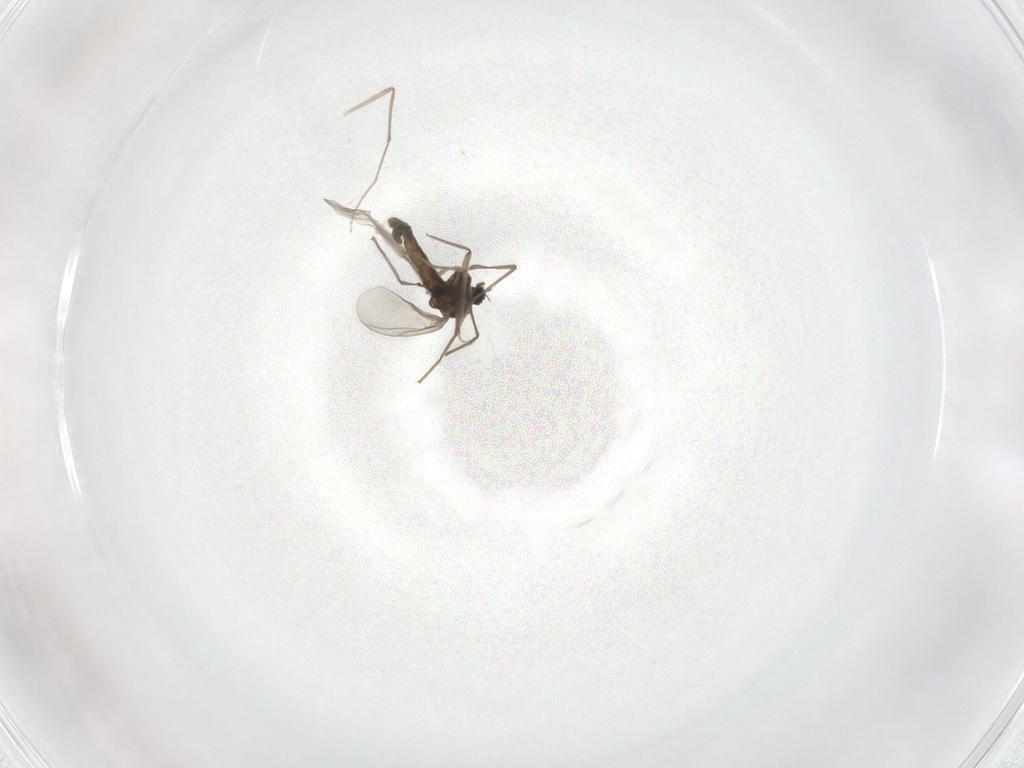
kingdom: Animalia
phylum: Arthropoda
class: Insecta
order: Diptera
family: Chironomidae
